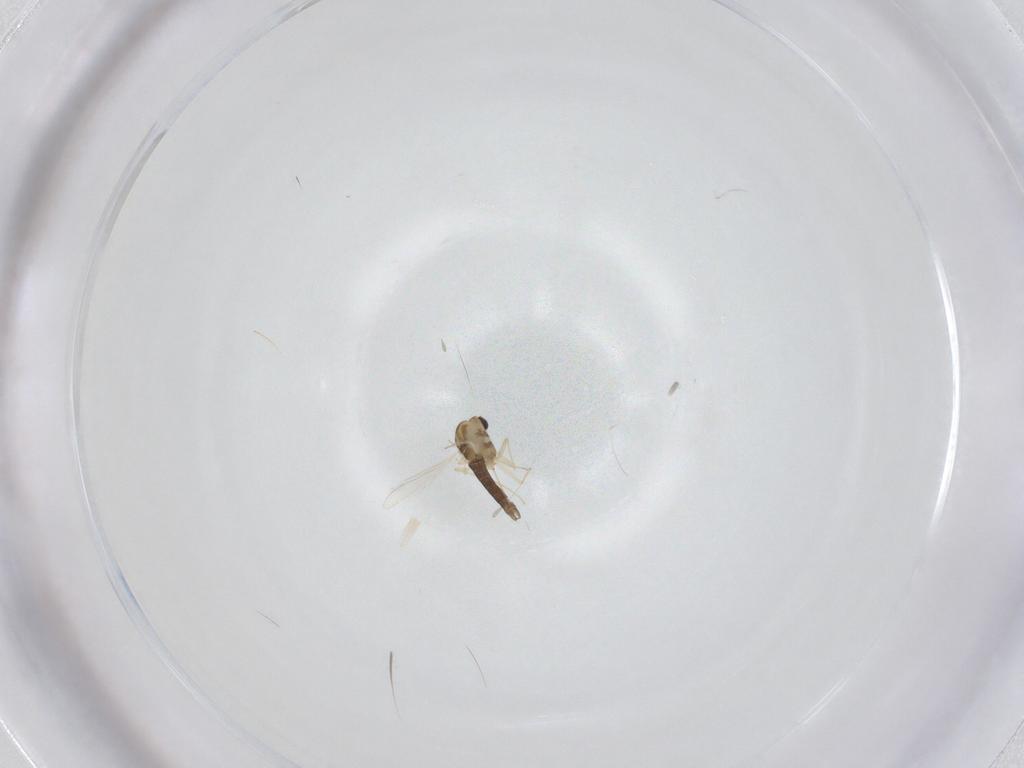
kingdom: Animalia
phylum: Arthropoda
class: Insecta
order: Diptera
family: Chironomidae
